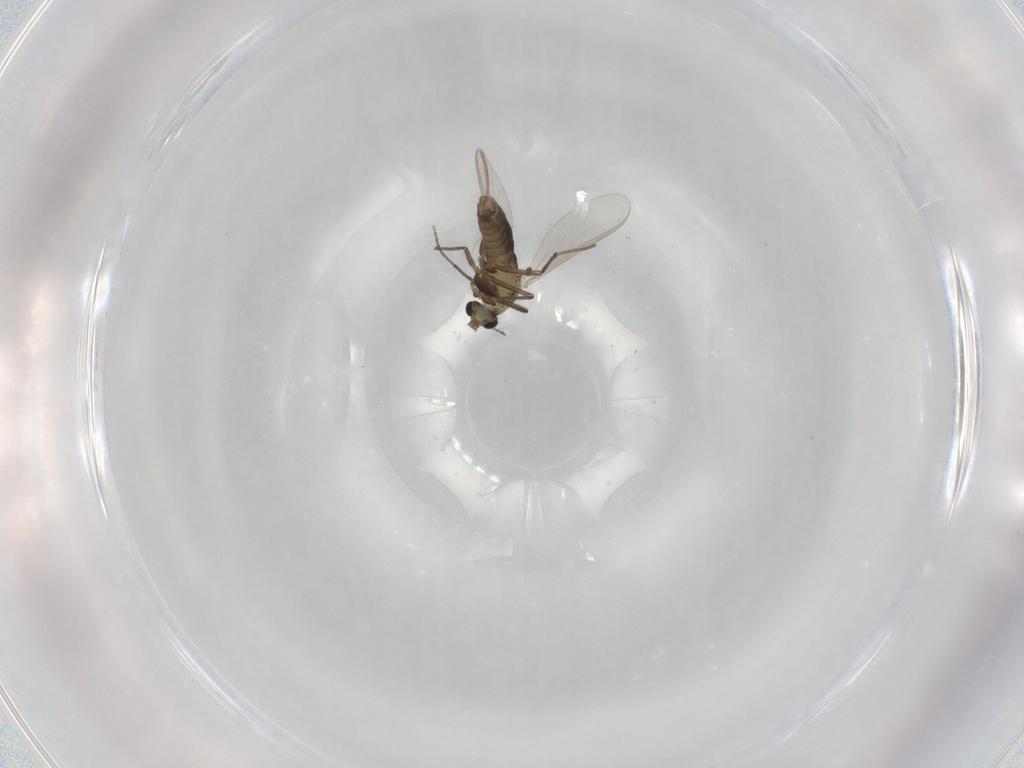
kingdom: Animalia
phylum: Arthropoda
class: Insecta
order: Diptera
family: Chironomidae
